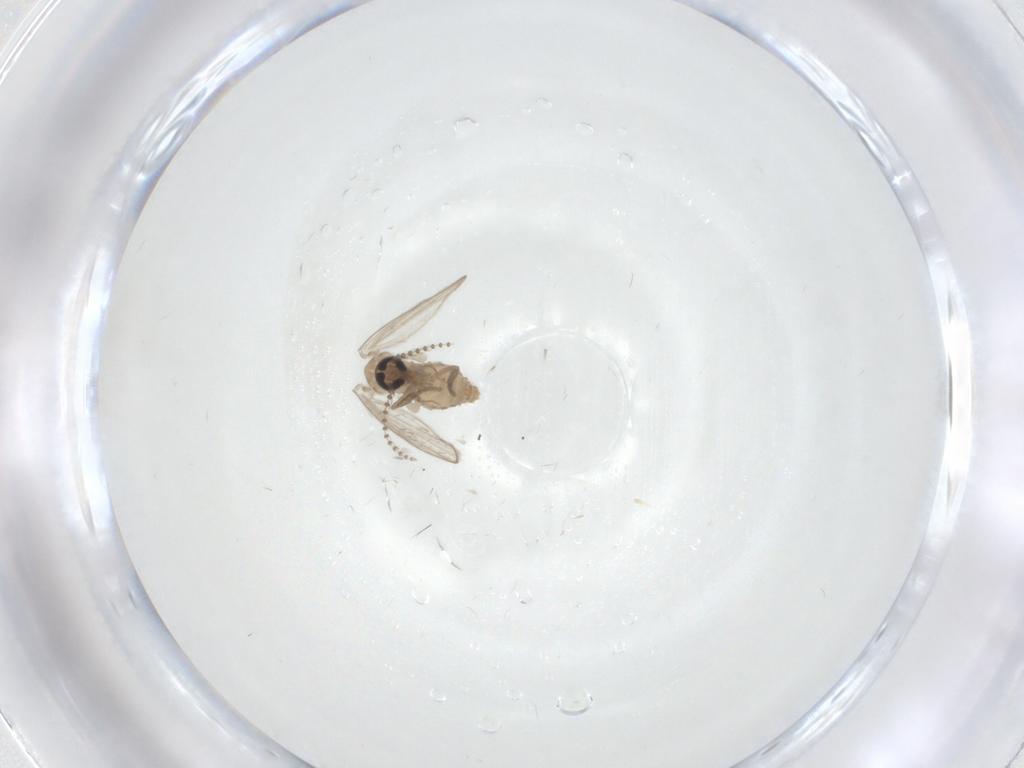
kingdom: Animalia
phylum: Arthropoda
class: Insecta
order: Diptera
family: Psychodidae
